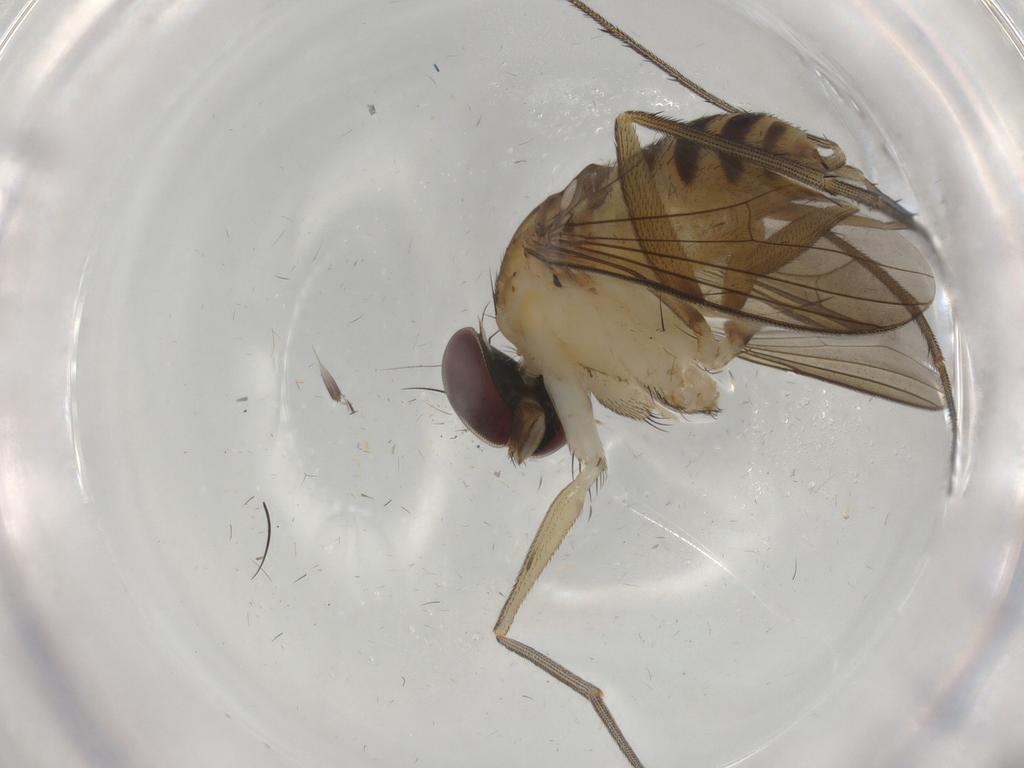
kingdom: Animalia
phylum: Arthropoda
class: Insecta
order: Diptera
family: Dolichopodidae
